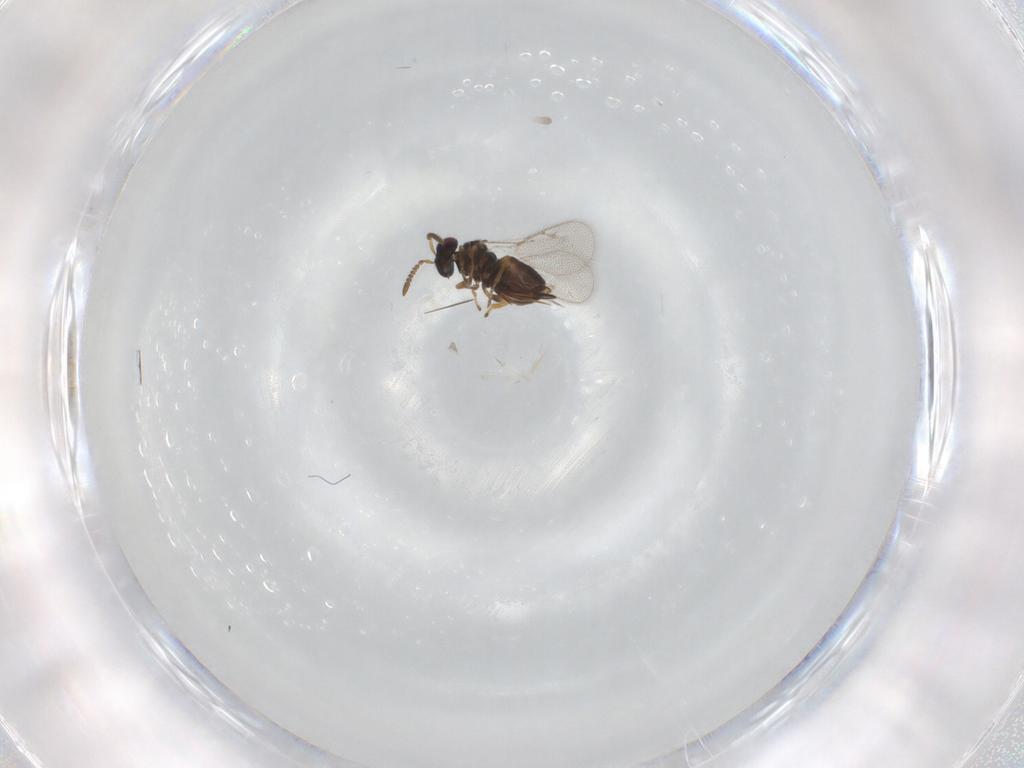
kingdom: Animalia
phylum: Arthropoda
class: Insecta
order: Hymenoptera
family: Pirenidae
